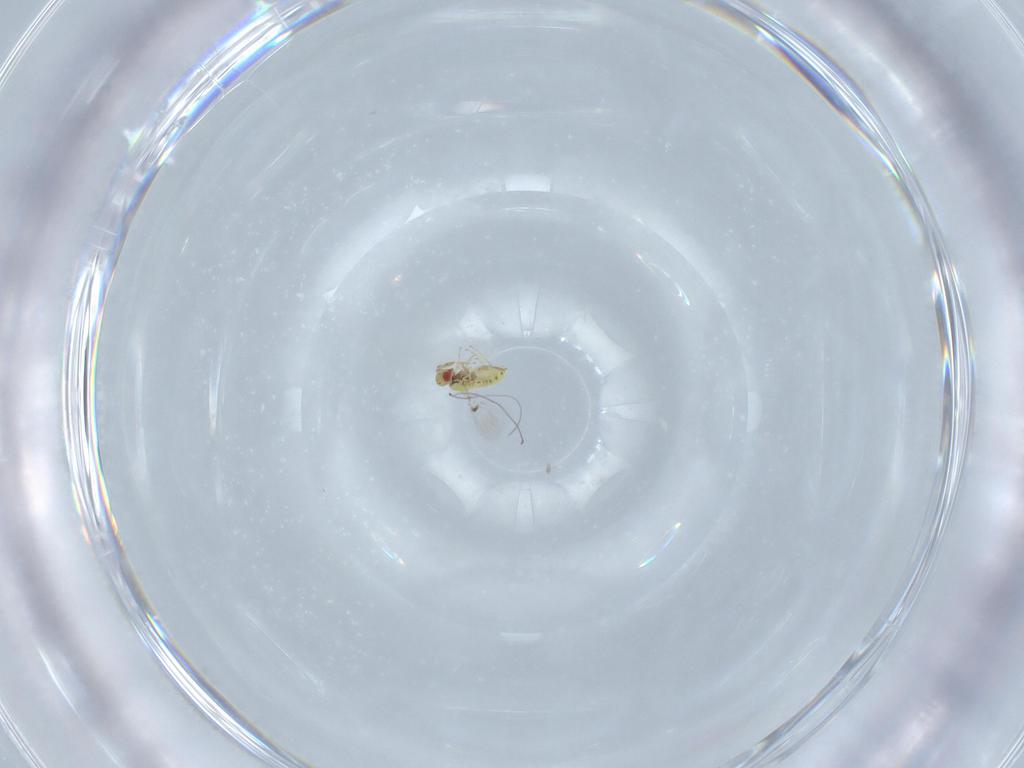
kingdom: Animalia
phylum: Arthropoda
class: Insecta
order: Hymenoptera
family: Trichogrammatidae
